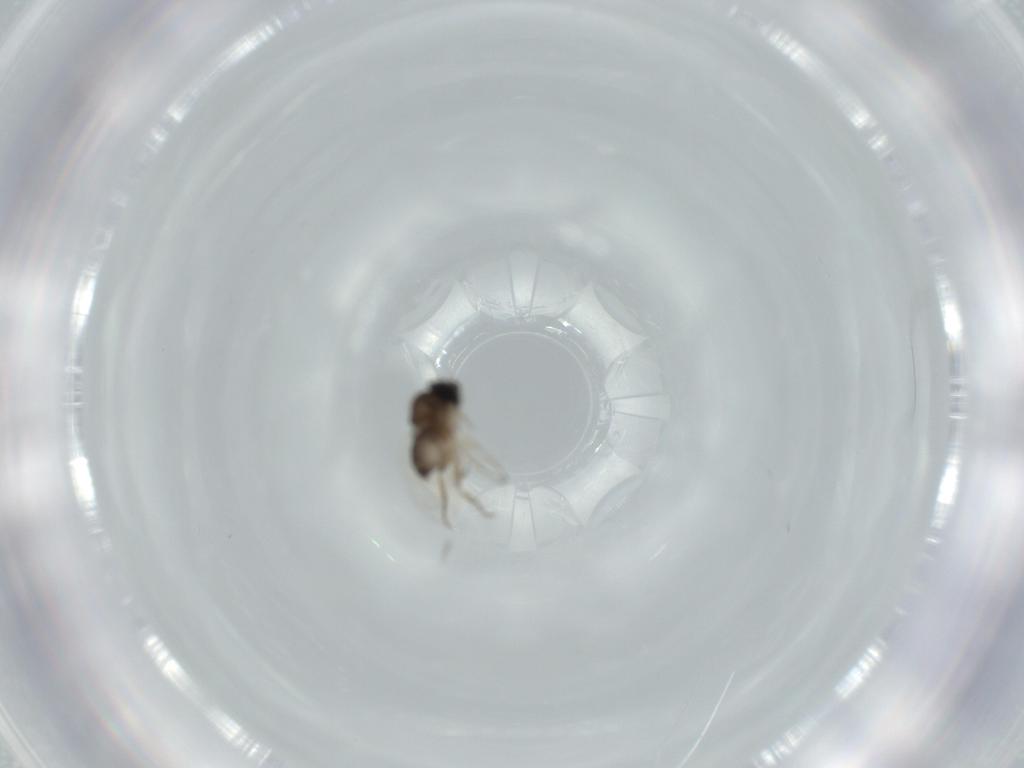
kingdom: Animalia
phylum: Arthropoda
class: Insecta
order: Diptera
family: Phoridae
